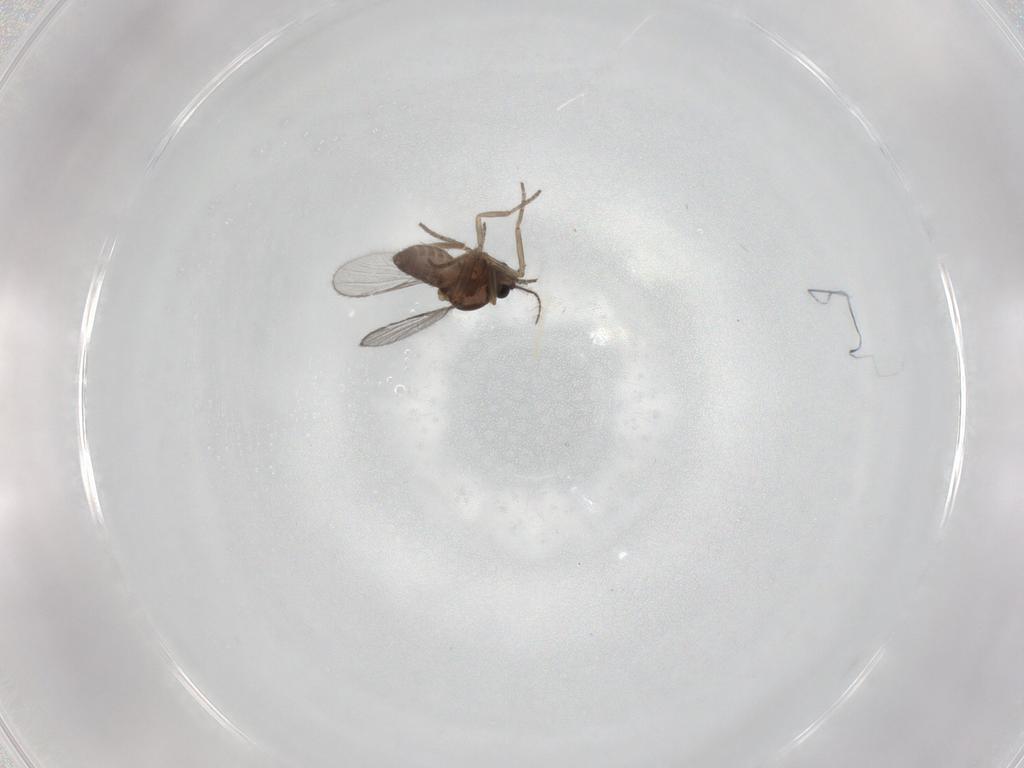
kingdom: Animalia
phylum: Arthropoda
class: Insecta
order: Diptera
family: Ceratopogonidae
